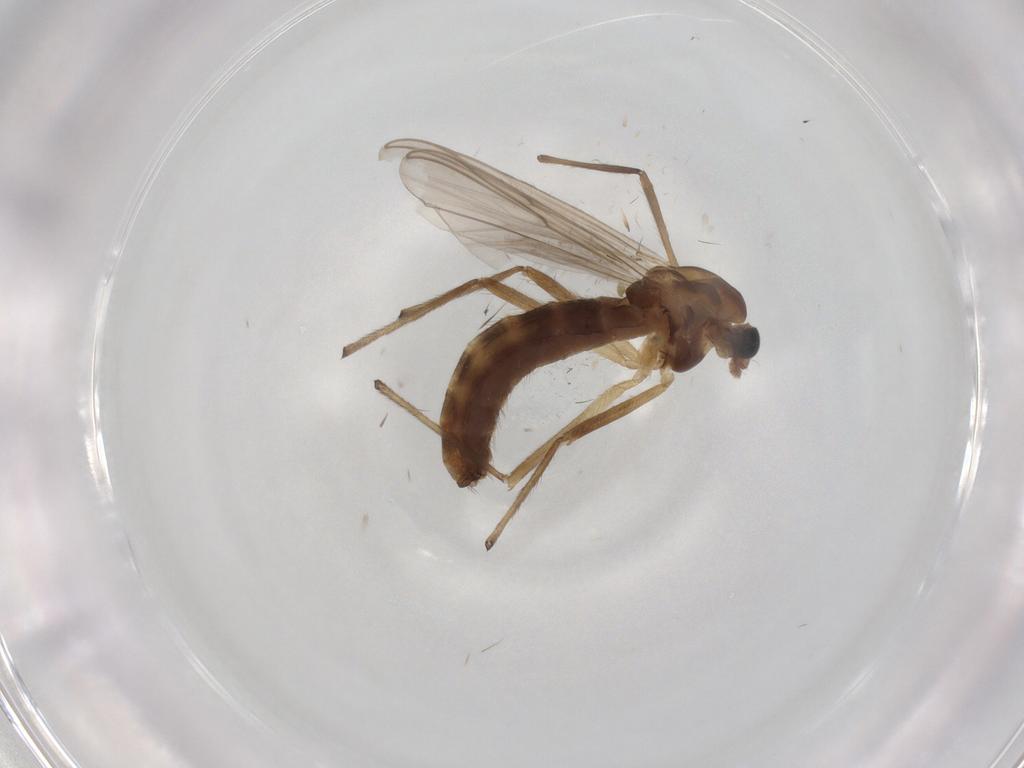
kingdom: Animalia
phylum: Arthropoda
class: Insecta
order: Diptera
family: Chironomidae
